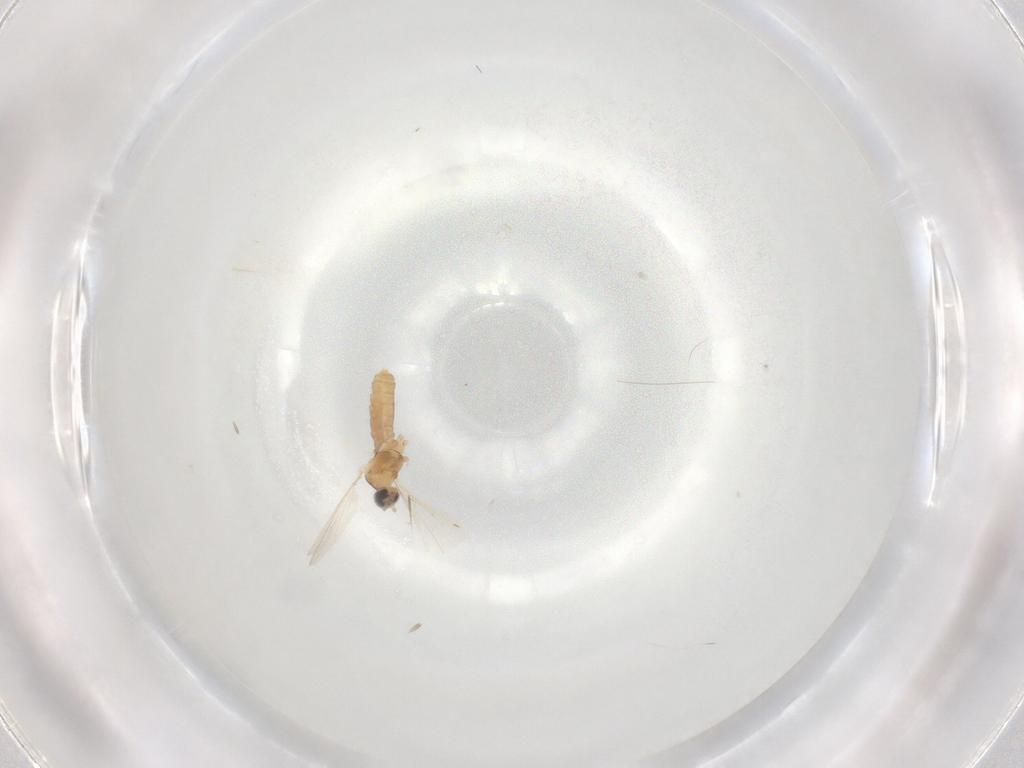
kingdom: Animalia
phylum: Arthropoda
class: Insecta
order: Diptera
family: Cecidomyiidae
